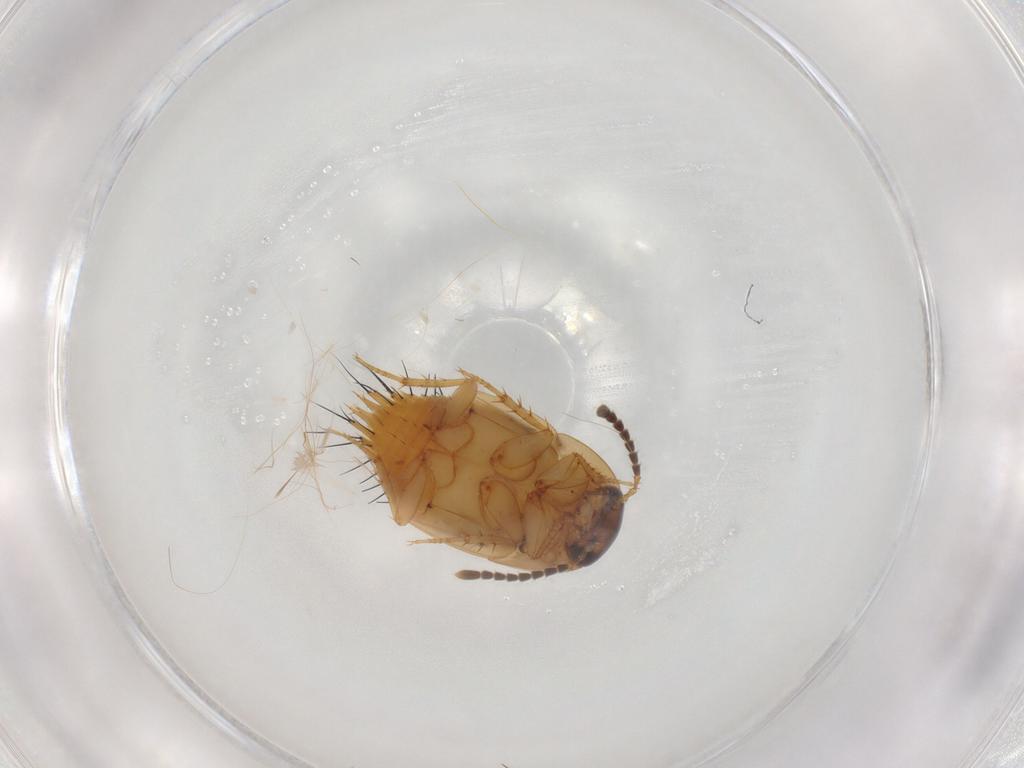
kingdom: Animalia
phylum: Arthropoda
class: Insecta
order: Coleoptera
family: Staphylinidae
